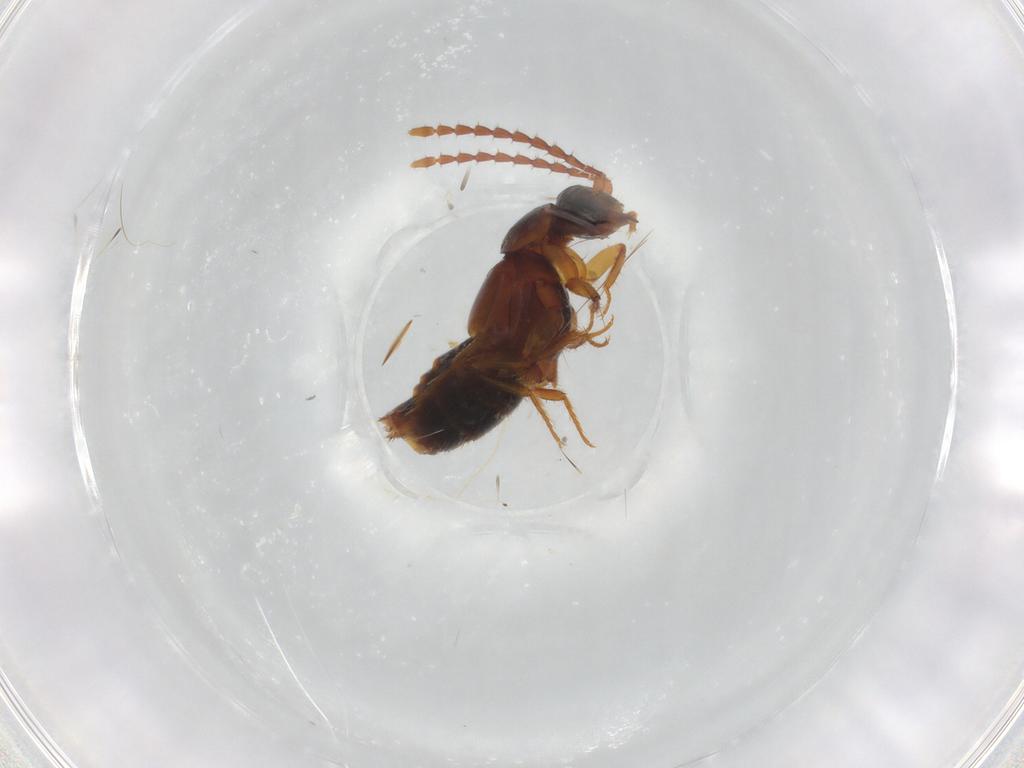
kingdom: Animalia
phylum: Arthropoda
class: Insecta
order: Coleoptera
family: Staphylinidae
